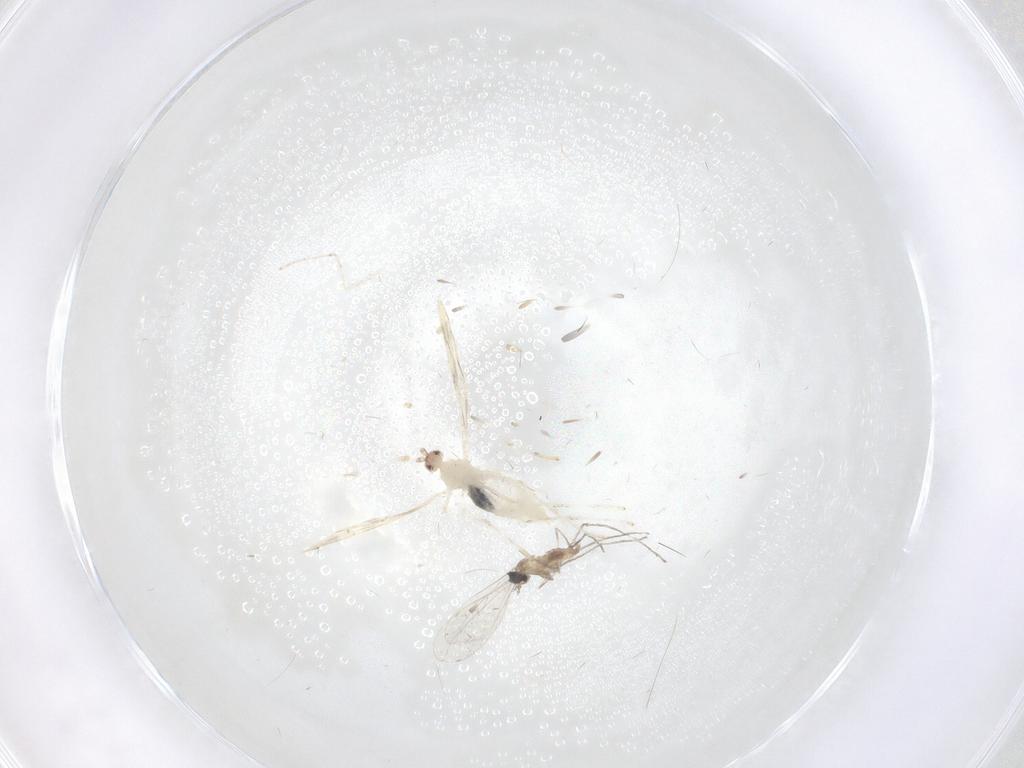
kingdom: Animalia
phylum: Arthropoda
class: Insecta
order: Diptera
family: Cecidomyiidae
